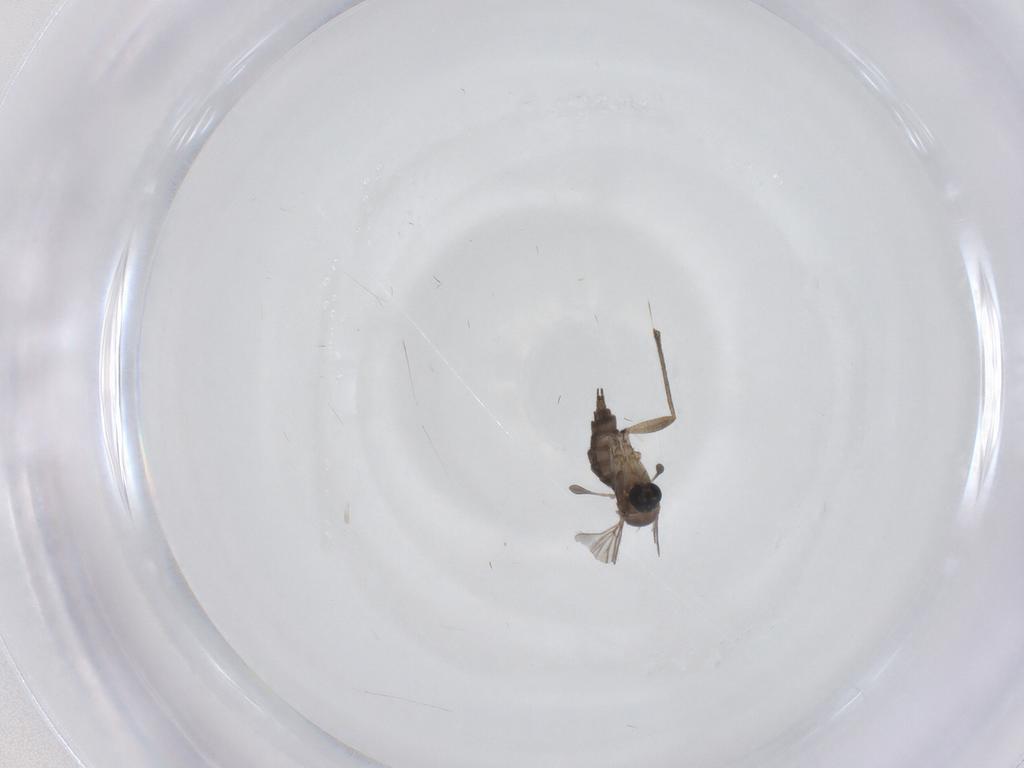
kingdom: Animalia
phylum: Arthropoda
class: Insecta
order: Diptera
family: Sciaridae
